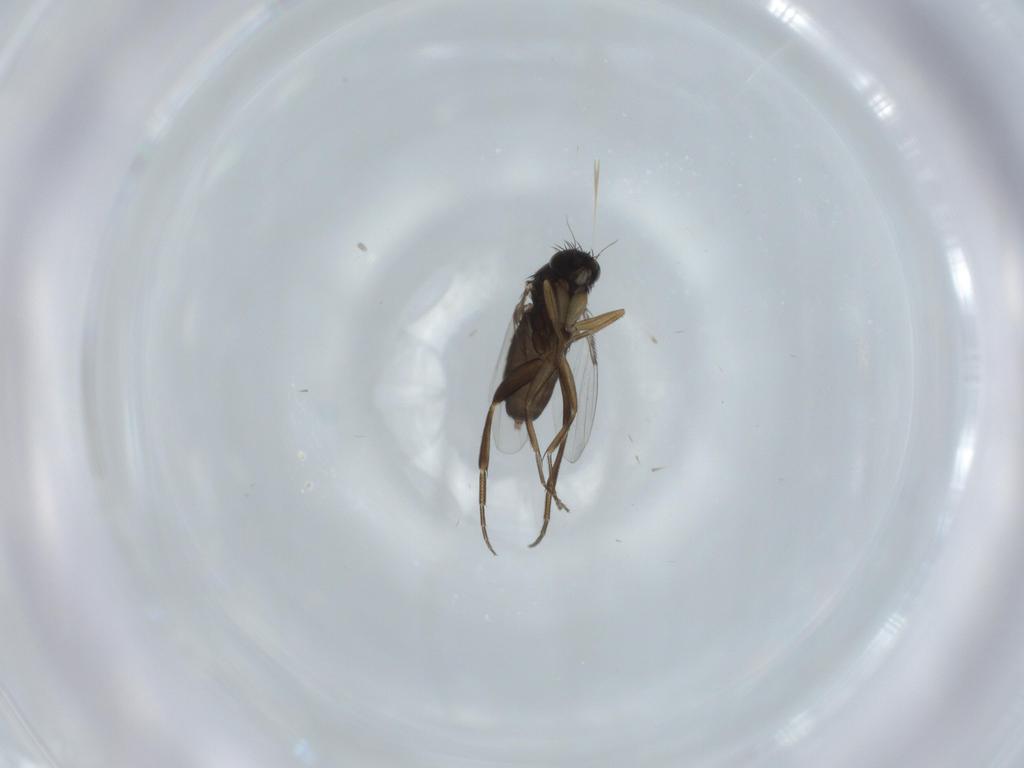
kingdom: Animalia
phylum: Arthropoda
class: Insecta
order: Diptera
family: Phoridae
